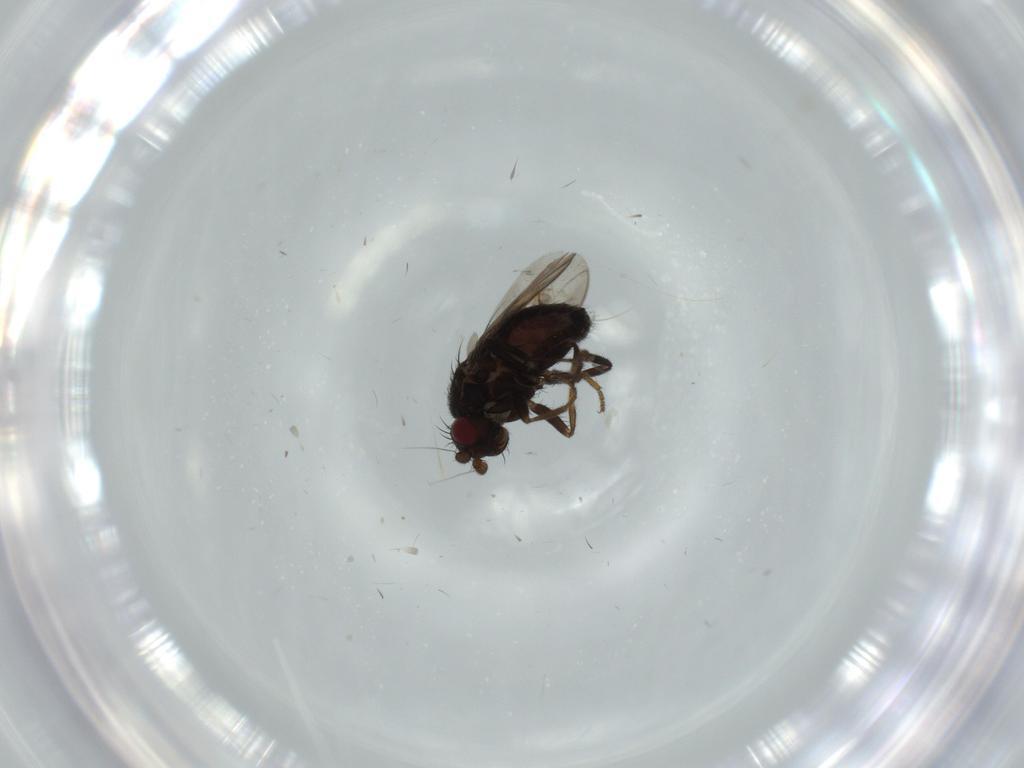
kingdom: Animalia
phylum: Arthropoda
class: Insecta
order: Diptera
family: Sphaeroceridae
